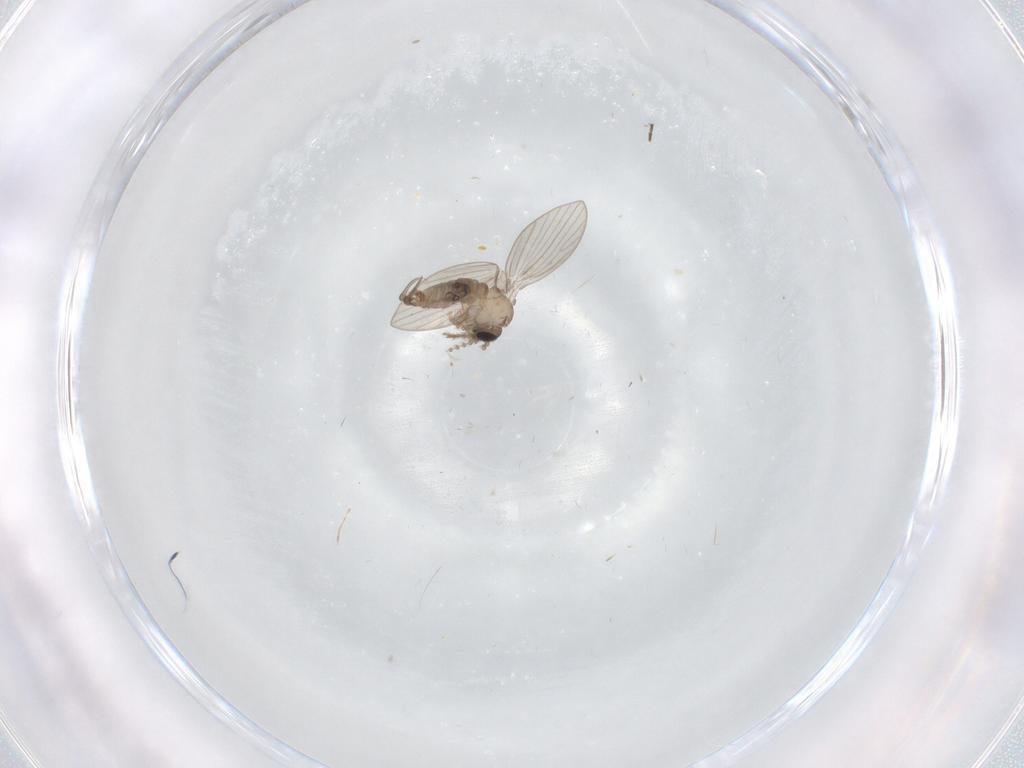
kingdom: Animalia
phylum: Arthropoda
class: Insecta
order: Diptera
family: Psychodidae
